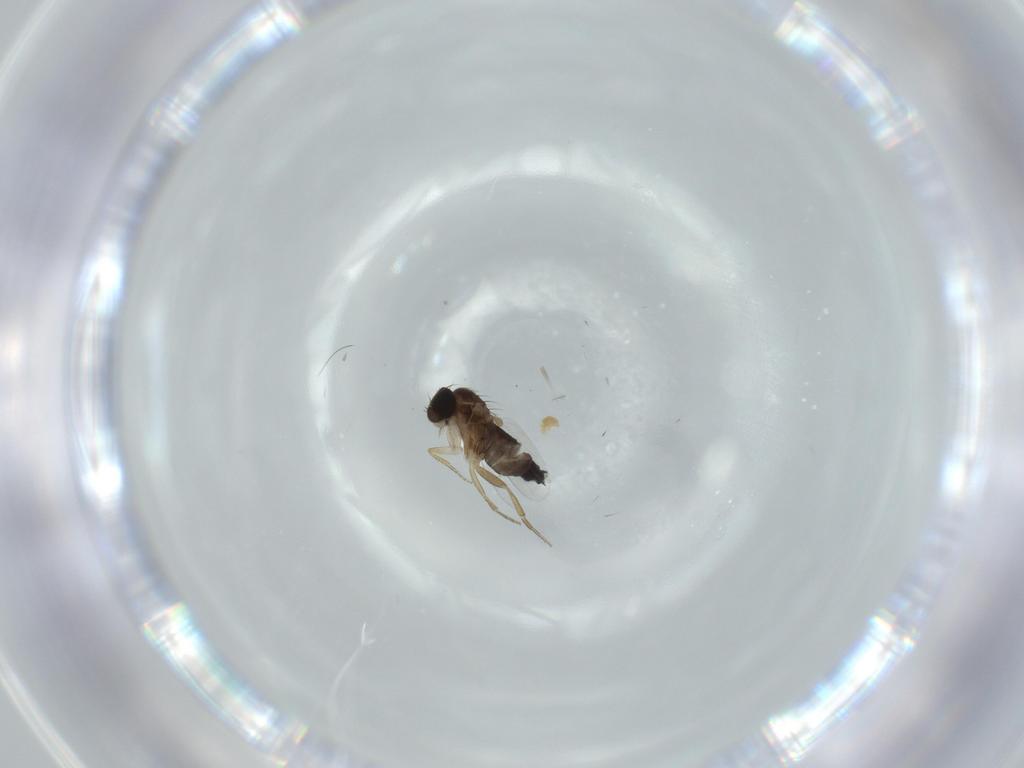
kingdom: Animalia
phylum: Arthropoda
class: Insecta
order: Diptera
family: Phoridae
